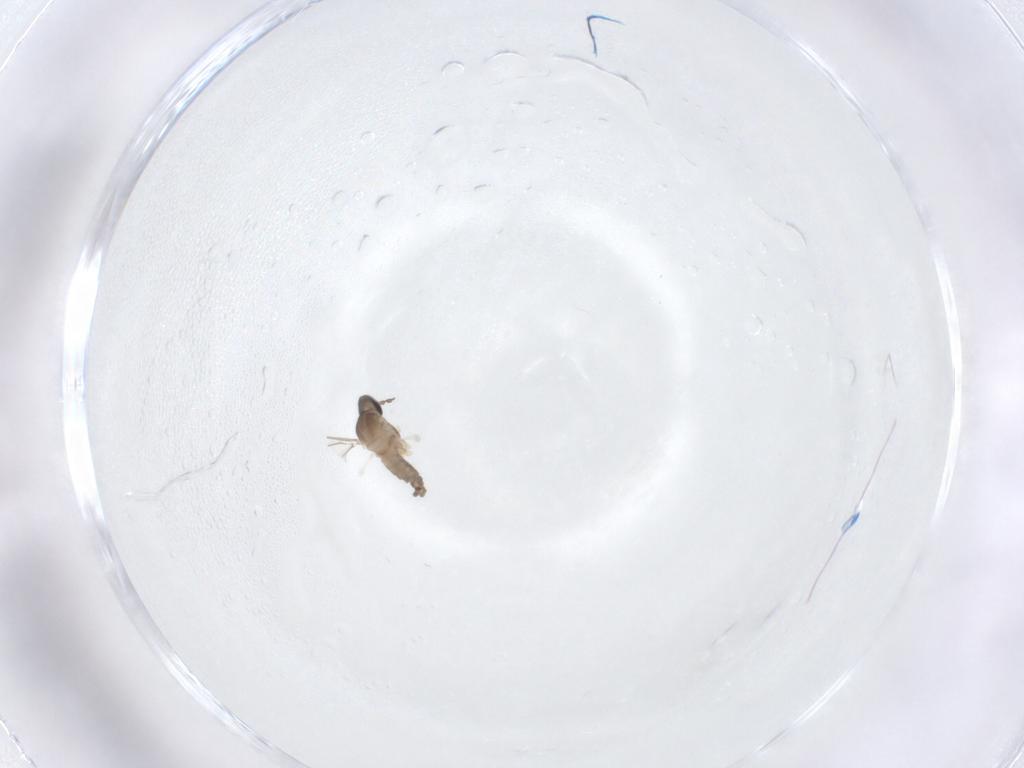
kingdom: Animalia
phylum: Arthropoda
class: Insecta
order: Diptera
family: Cecidomyiidae
